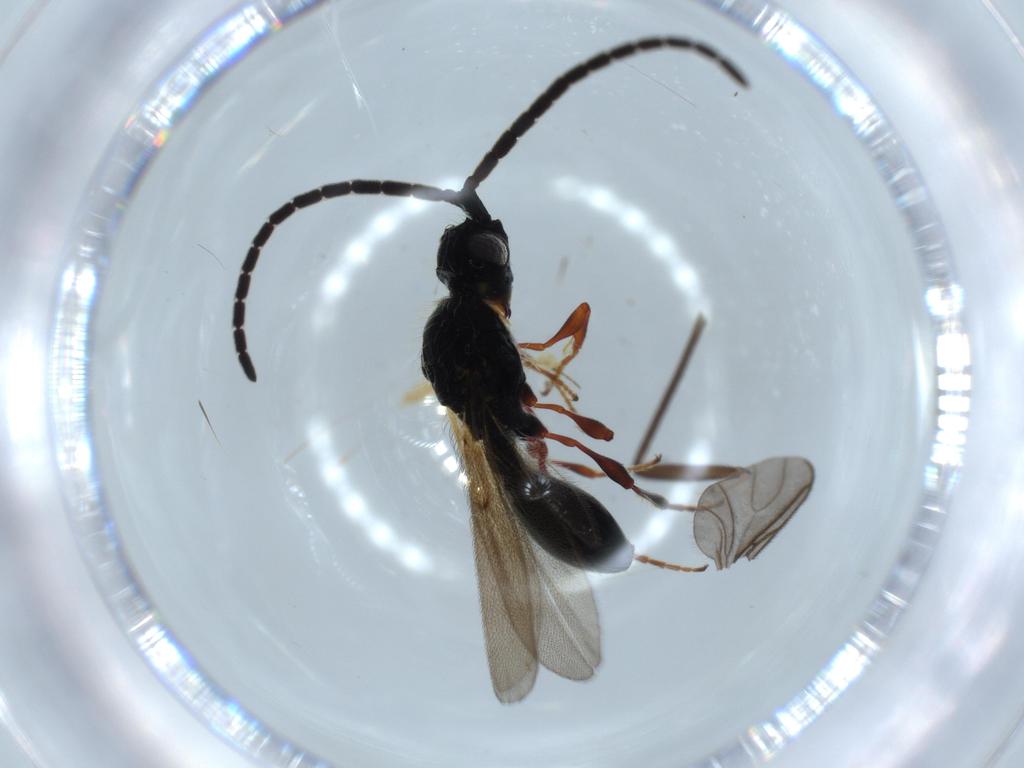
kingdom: Animalia
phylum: Arthropoda
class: Insecta
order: Hymenoptera
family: Diapriidae
